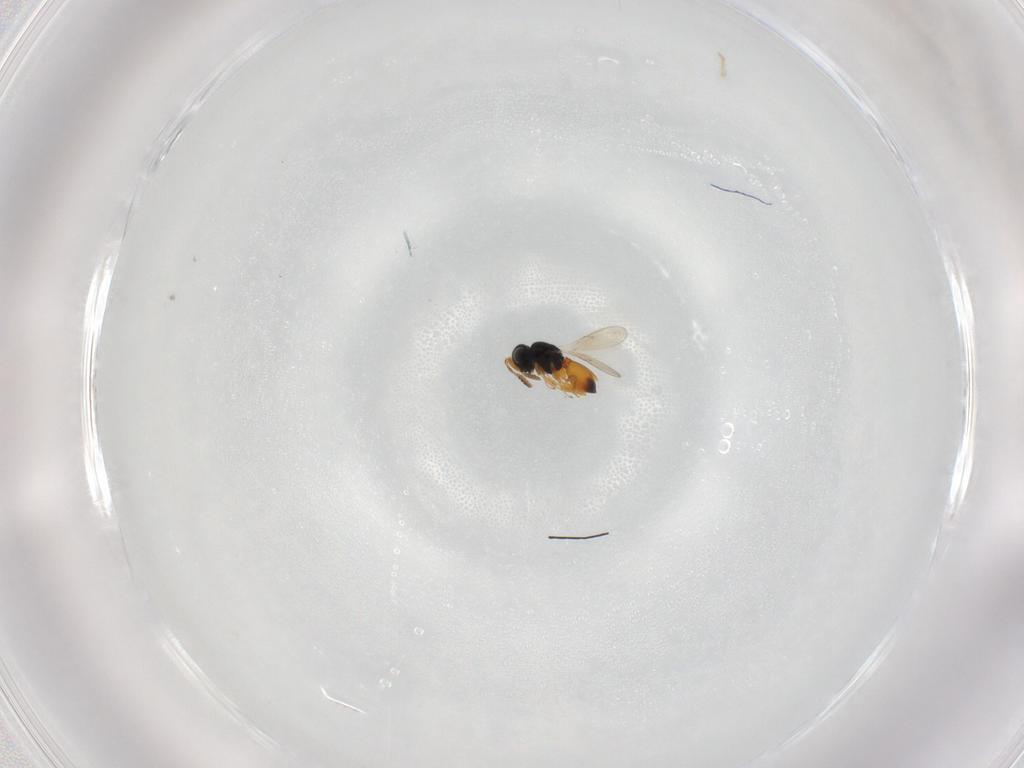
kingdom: Animalia
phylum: Arthropoda
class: Insecta
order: Hymenoptera
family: Scelionidae
